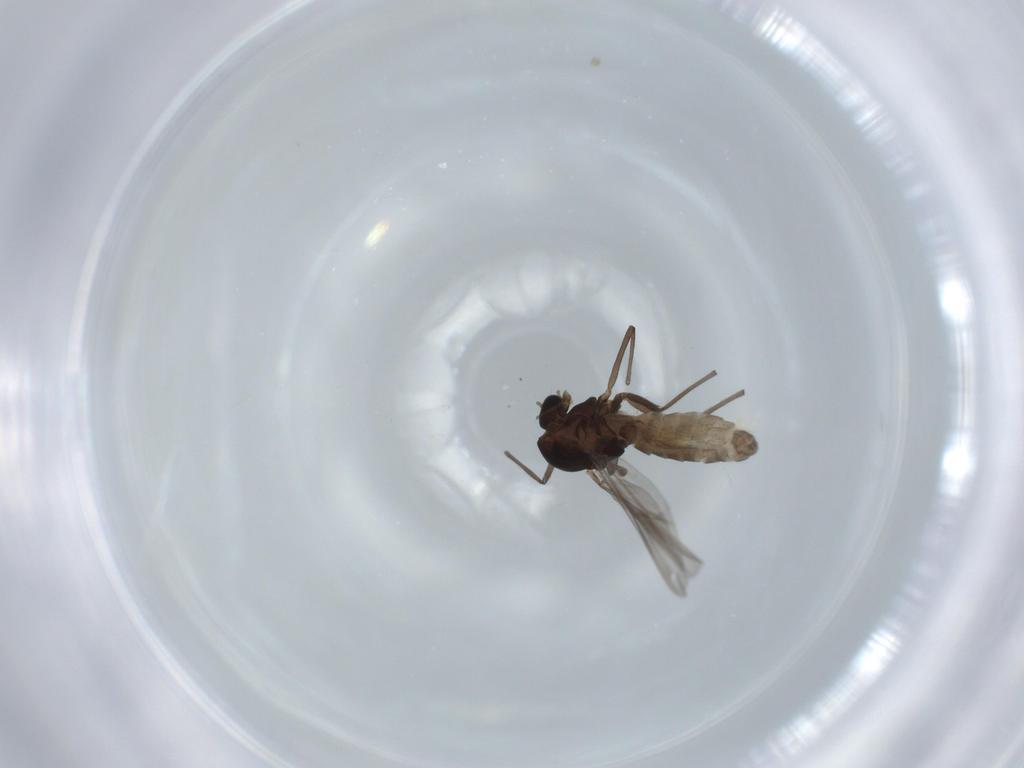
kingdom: Animalia
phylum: Arthropoda
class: Insecta
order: Diptera
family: Chironomidae
